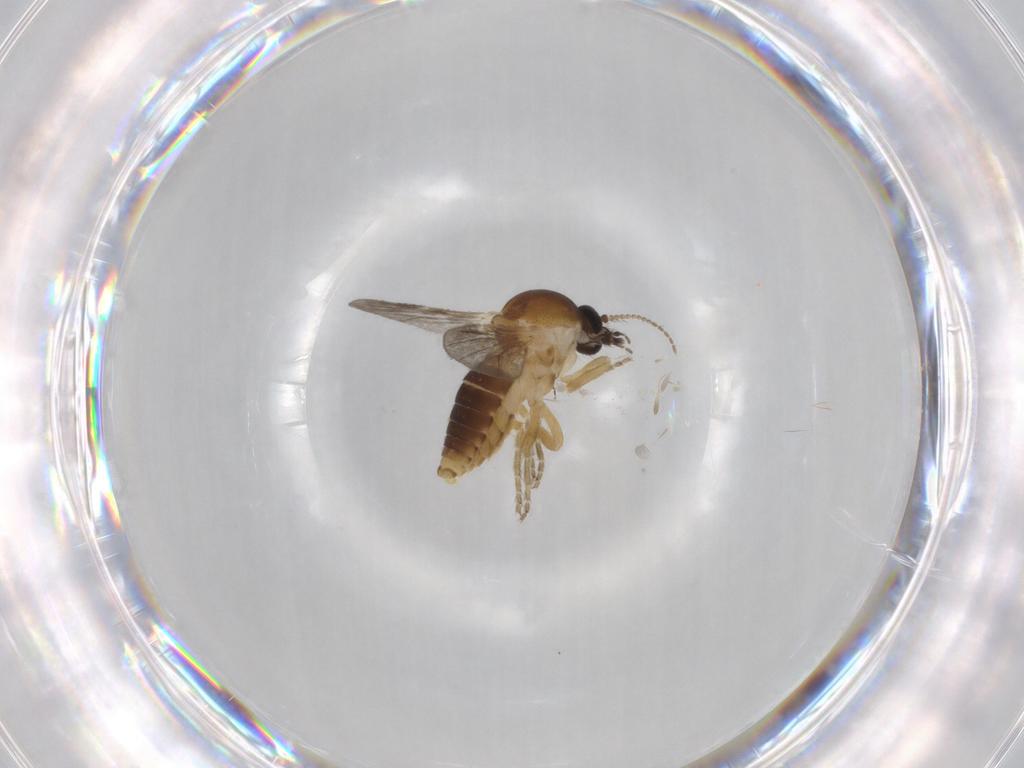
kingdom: Animalia
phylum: Arthropoda
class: Insecta
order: Diptera
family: Ceratopogonidae
